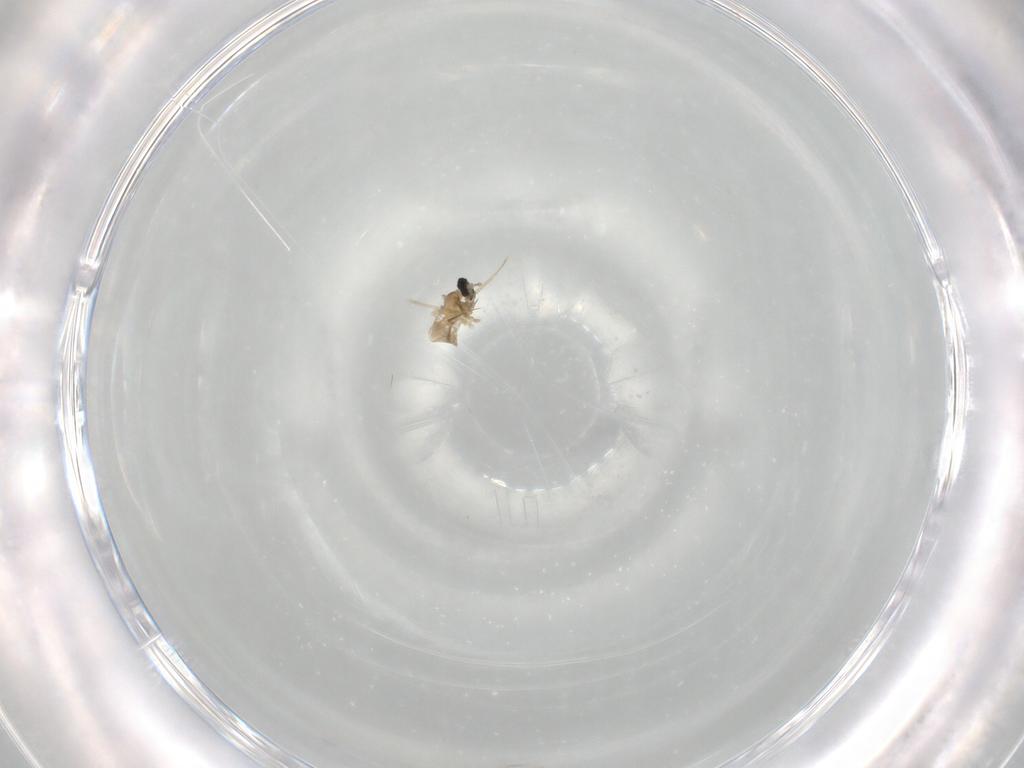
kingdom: Animalia
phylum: Arthropoda
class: Insecta
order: Diptera
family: Cecidomyiidae
